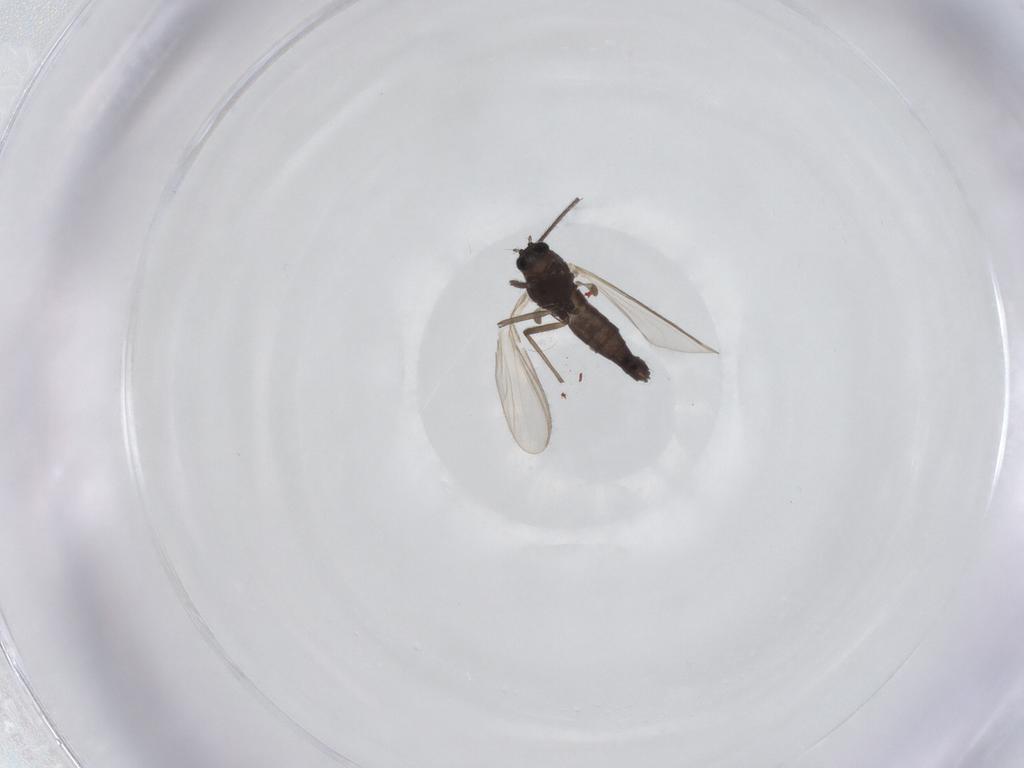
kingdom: Animalia
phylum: Arthropoda
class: Insecta
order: Diptera
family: Chironomidae
